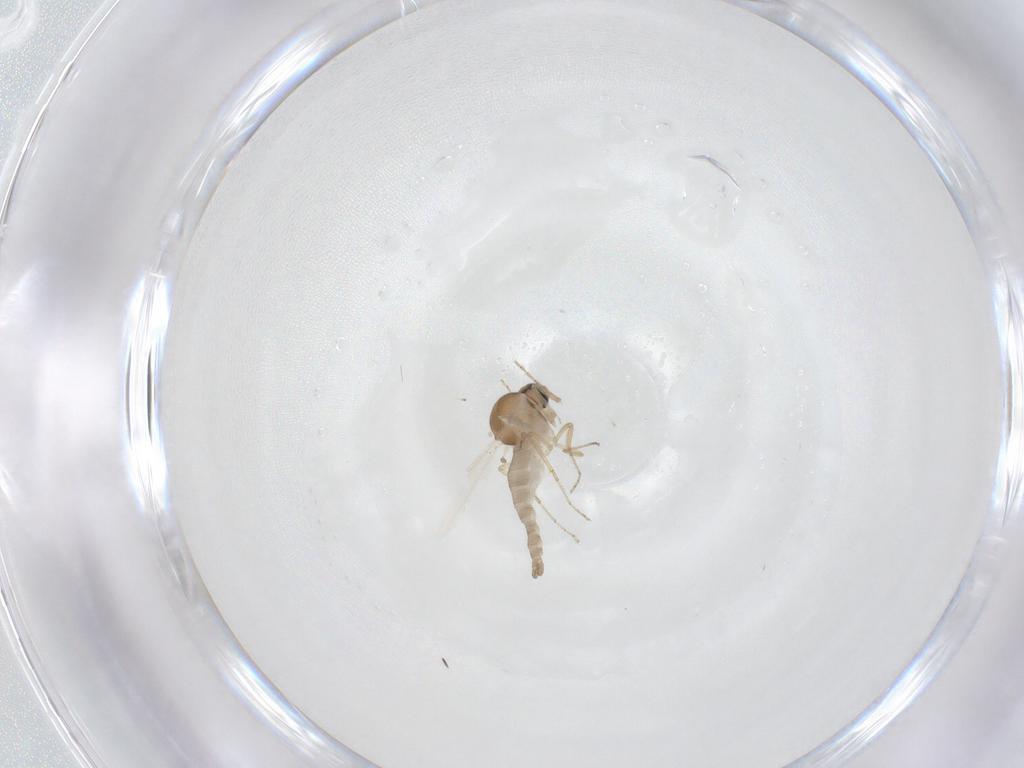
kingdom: Animalia
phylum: Arthropoda
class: Insecta
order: Diptera
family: Ceratopogonidae
